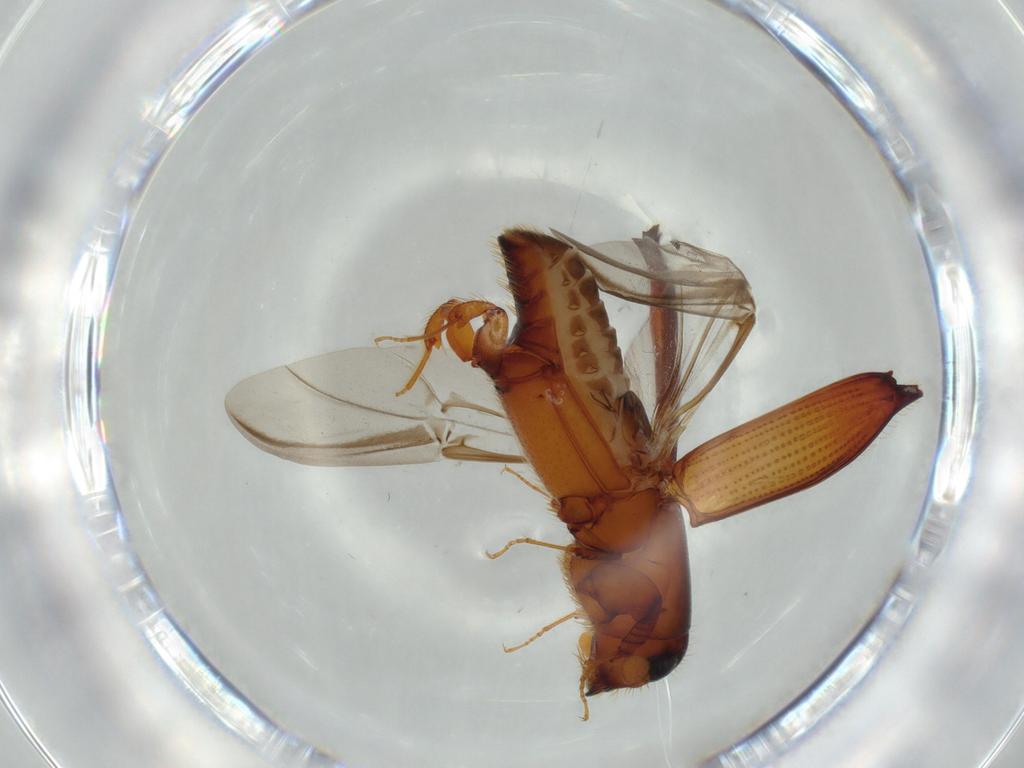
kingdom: Animalia
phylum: Arthropoda
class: Insecta
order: Coleoptera
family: Curculionidae
